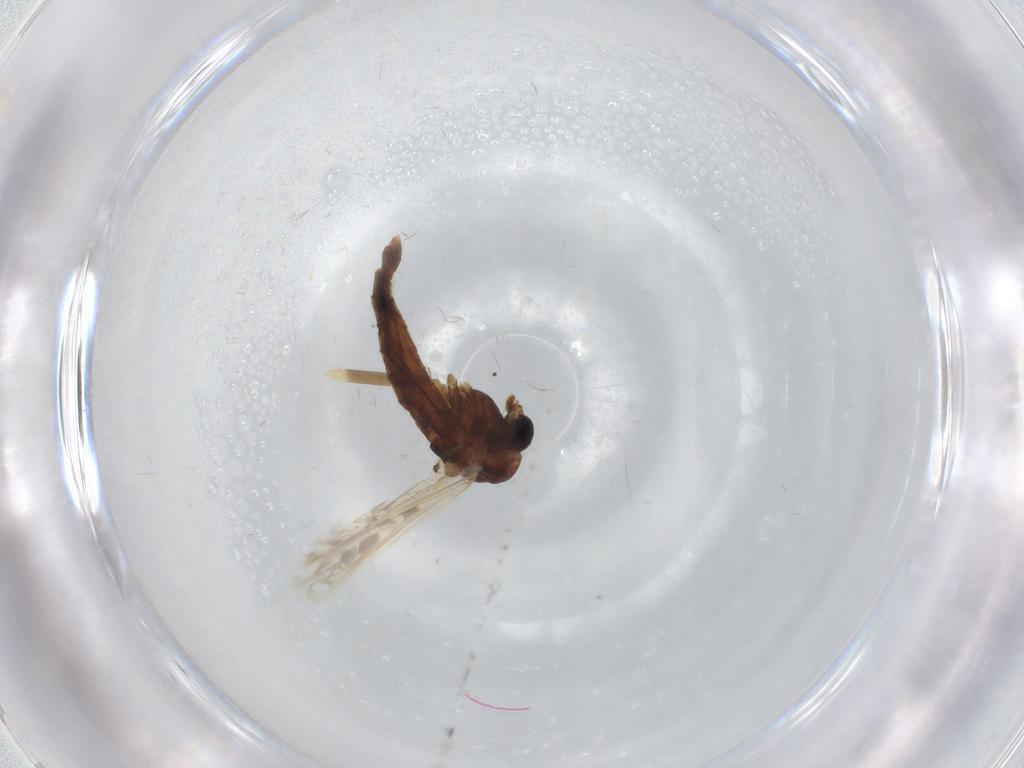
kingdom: Animalia
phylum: Arthropoda
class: Insecta
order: Diptera
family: Chironomidae
